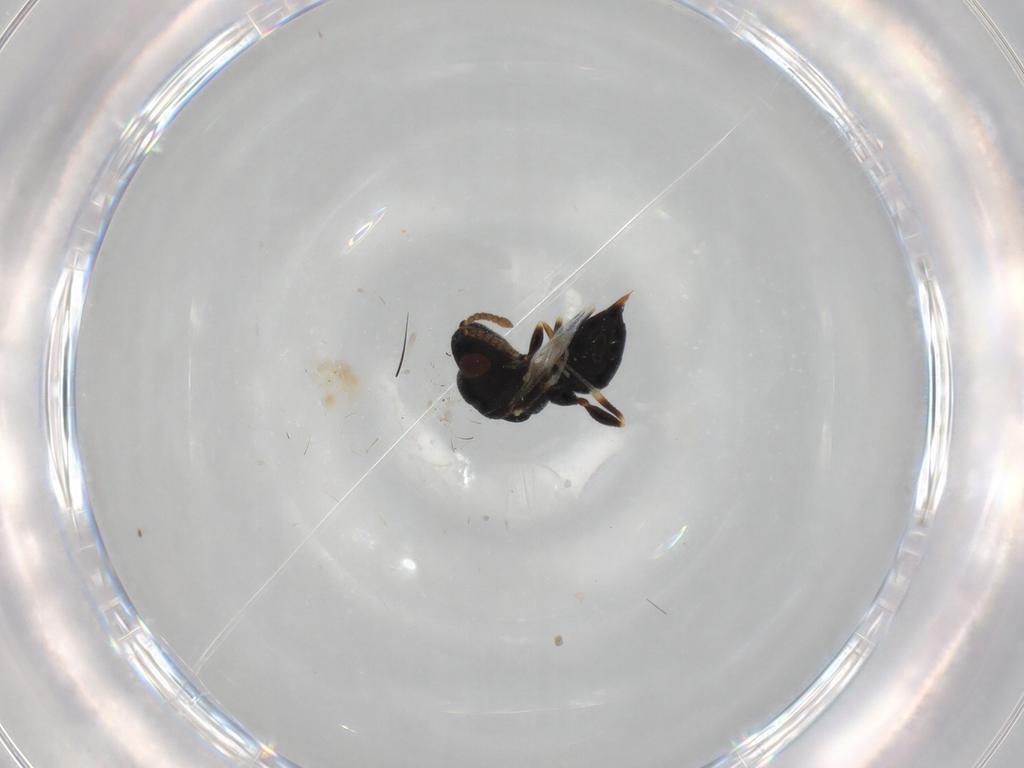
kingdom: Animalia
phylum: Arthropoda
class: Insecta
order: Hymenoptera
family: Eurytomidae
